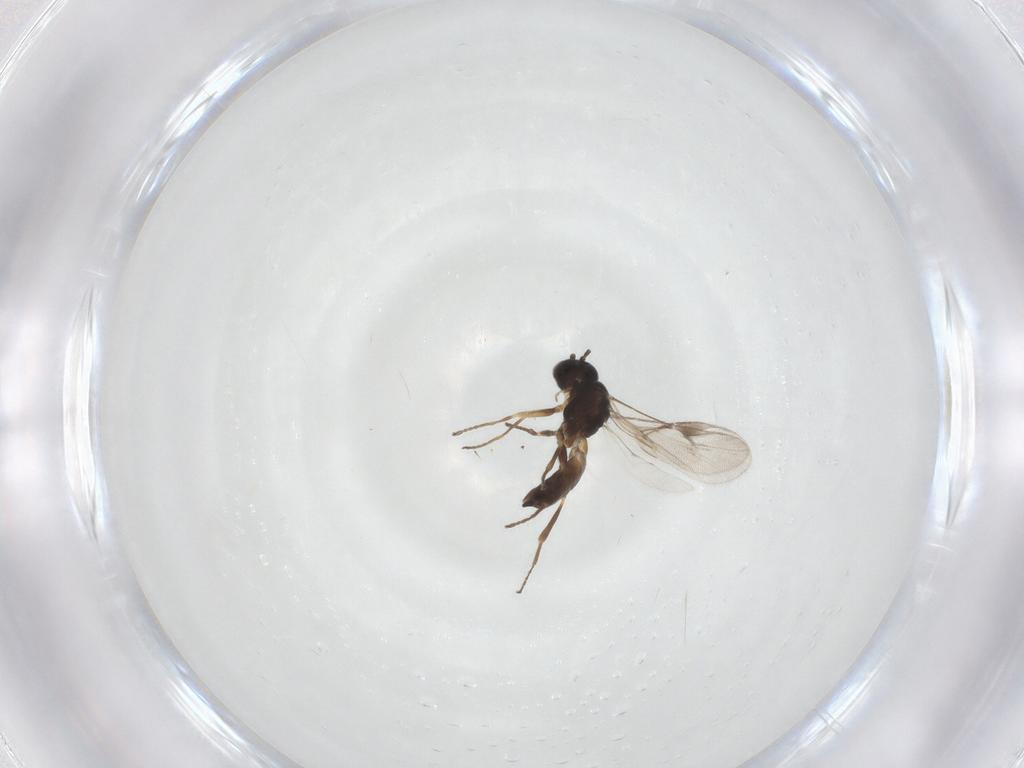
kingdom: Animalia
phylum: Arthropoda
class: Insecta
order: Hymenoptera
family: Braconidae
